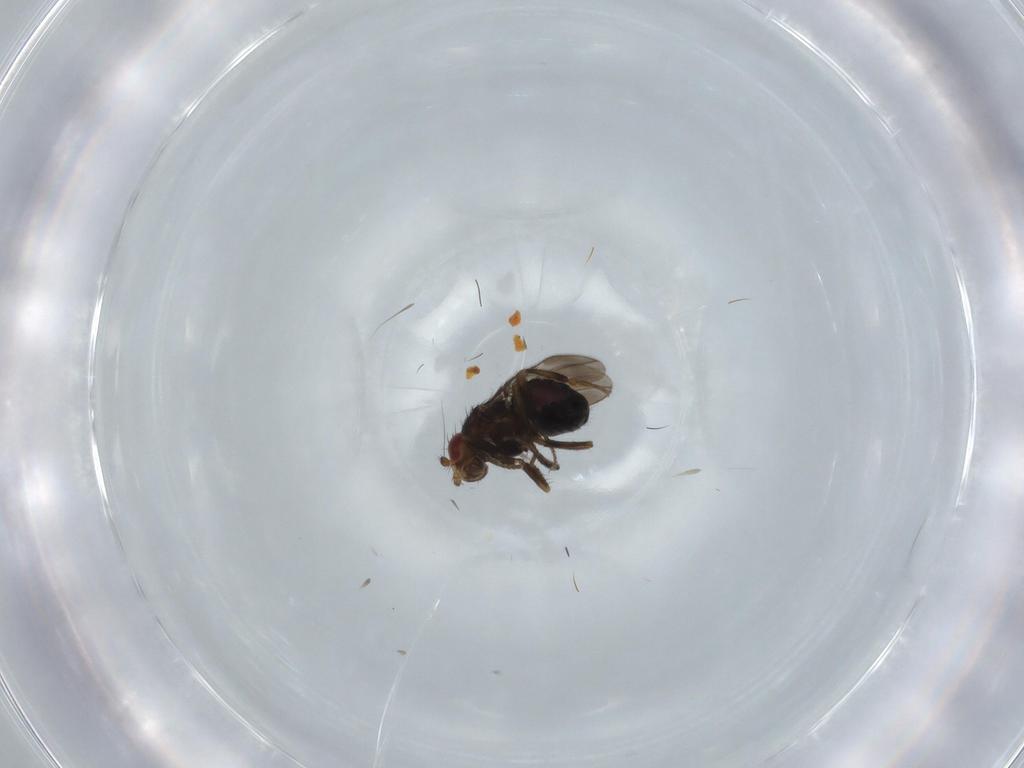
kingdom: Animalia
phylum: Arthropoda
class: Insecta
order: Diptera
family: Sphaeroceridae
